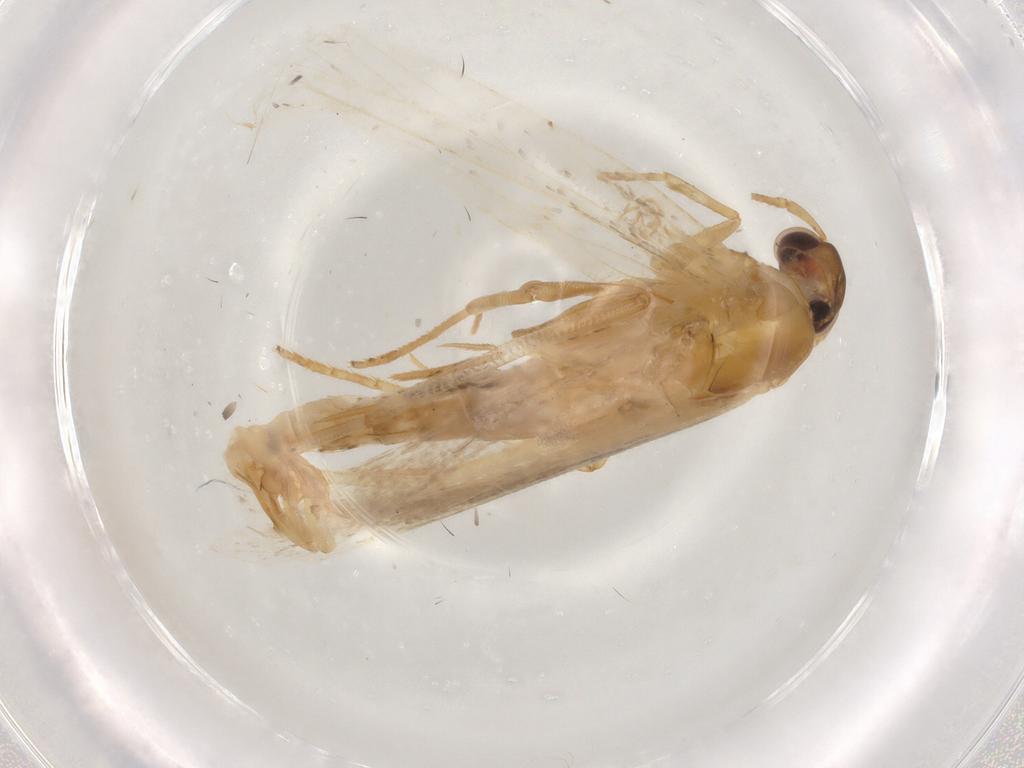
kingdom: Animalia
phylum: Arthropoda
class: Insecta
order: Lepidoptera
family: Gelechiidae
